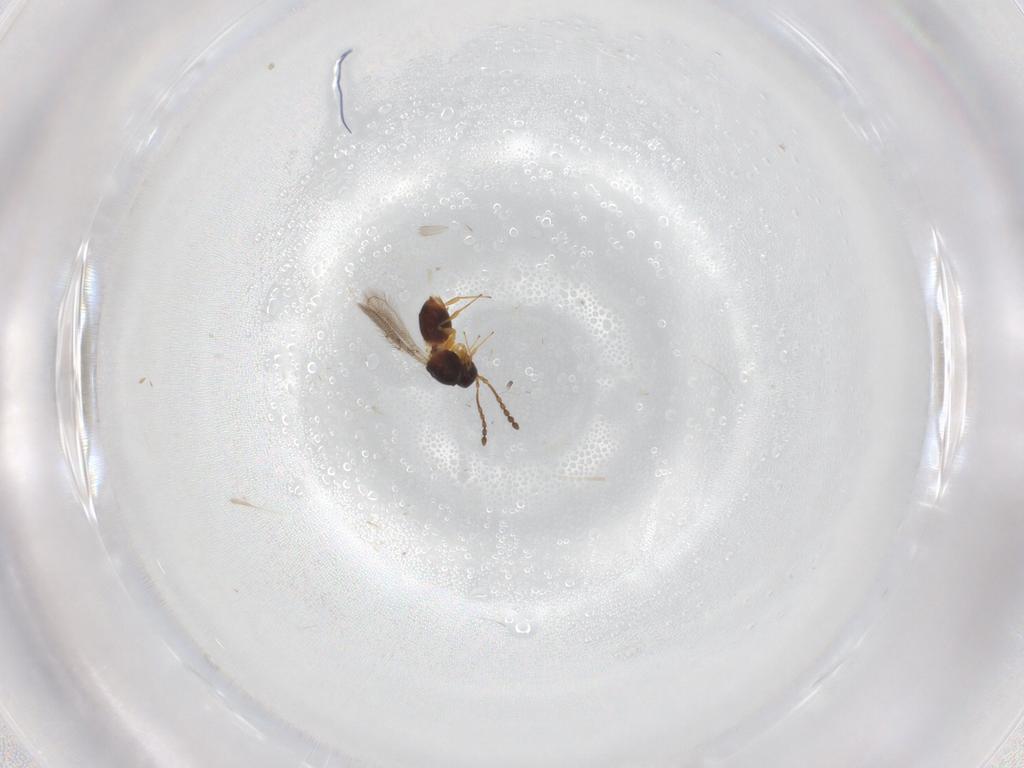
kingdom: Animalia
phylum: Arthropoda
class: Insecta
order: Hymenoptera
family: Figitidae
